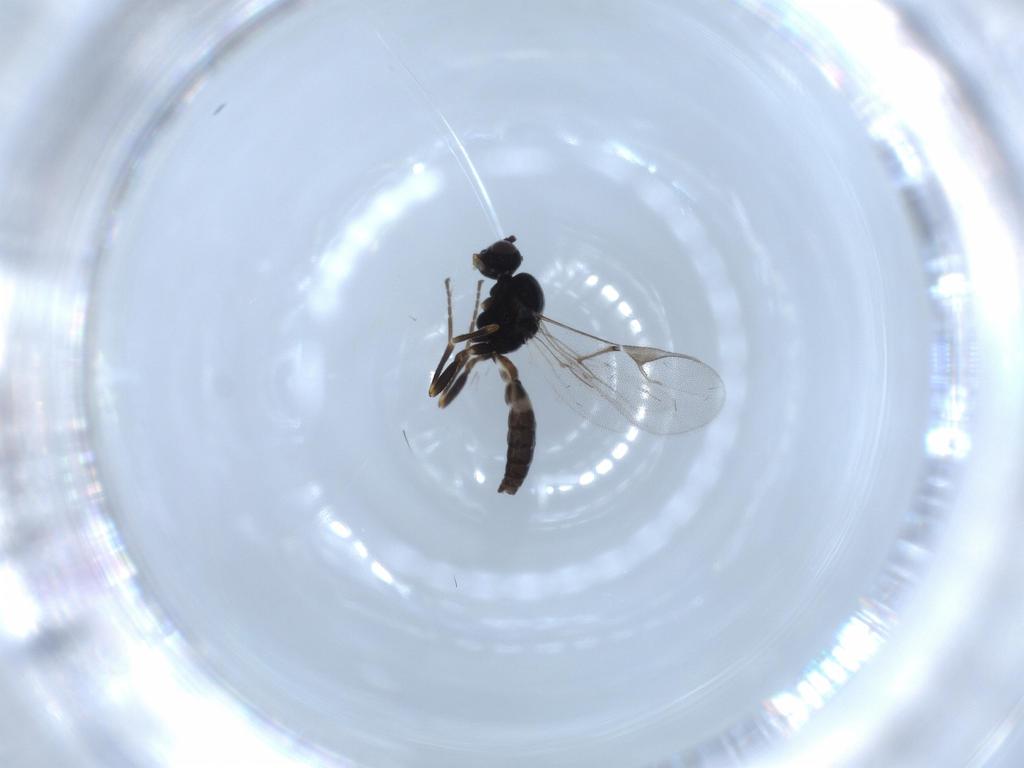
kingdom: Animalia
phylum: Arthropoda
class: Insecta
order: Hymenoptera
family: Braconidae
